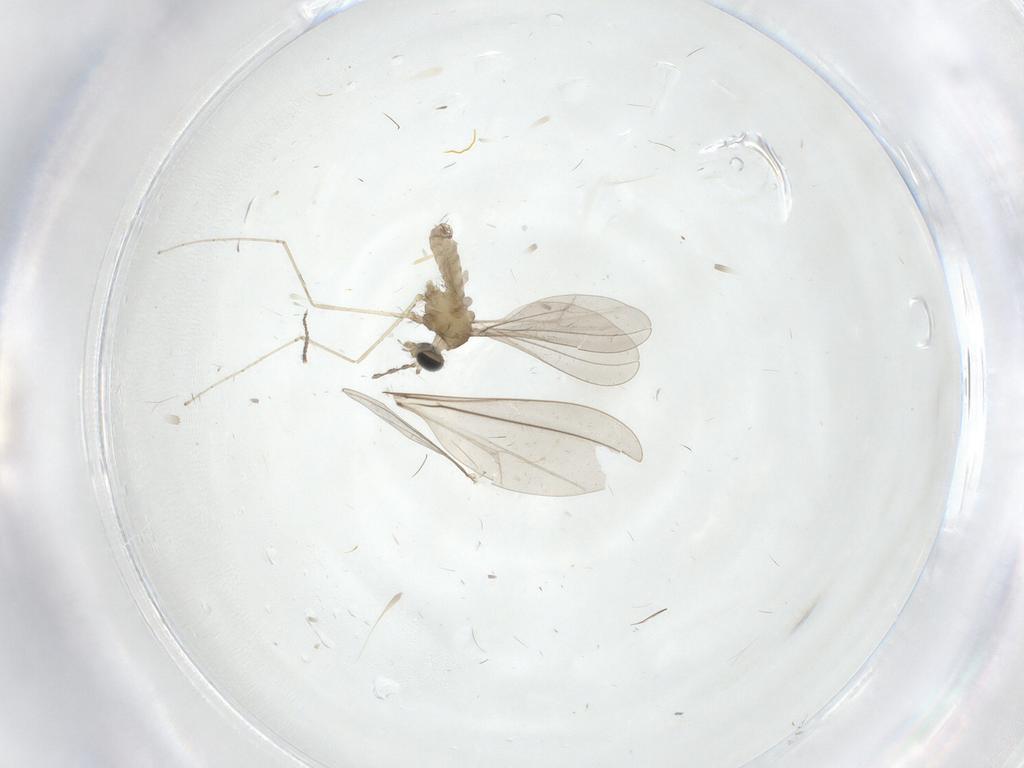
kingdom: Animalia
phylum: Arthropoda
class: Insecta
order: Diptera
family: Cecidomyiidae
